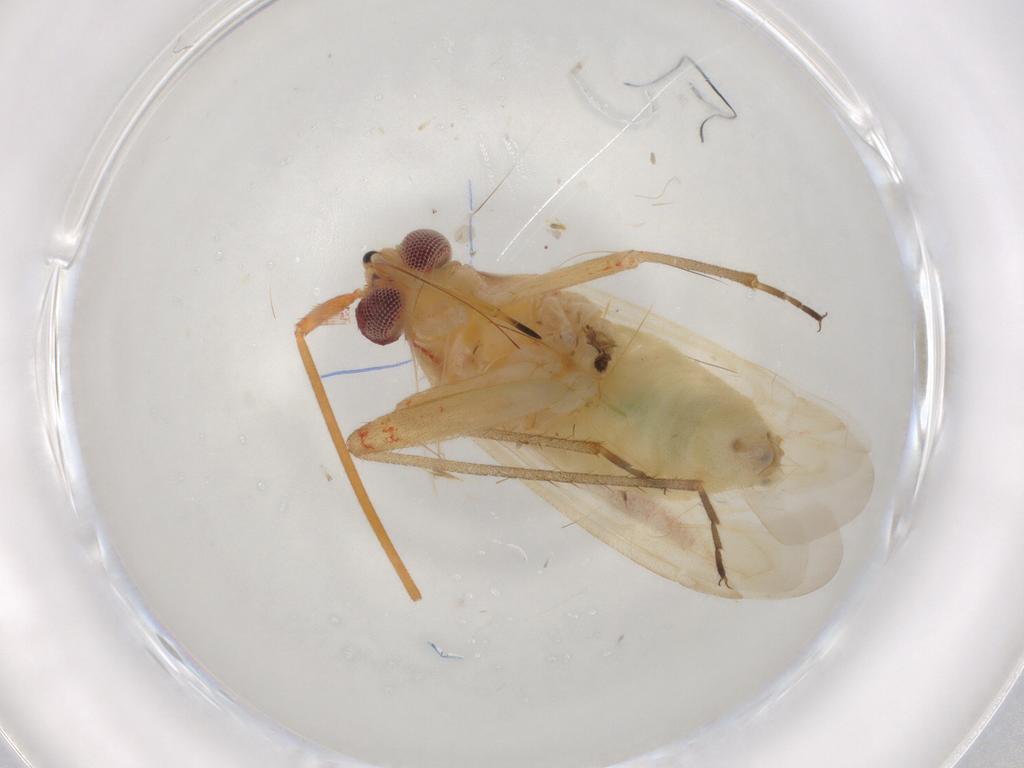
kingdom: Animalia
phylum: Arthropoda
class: Insecta
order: Hemiptera
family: Miridae
